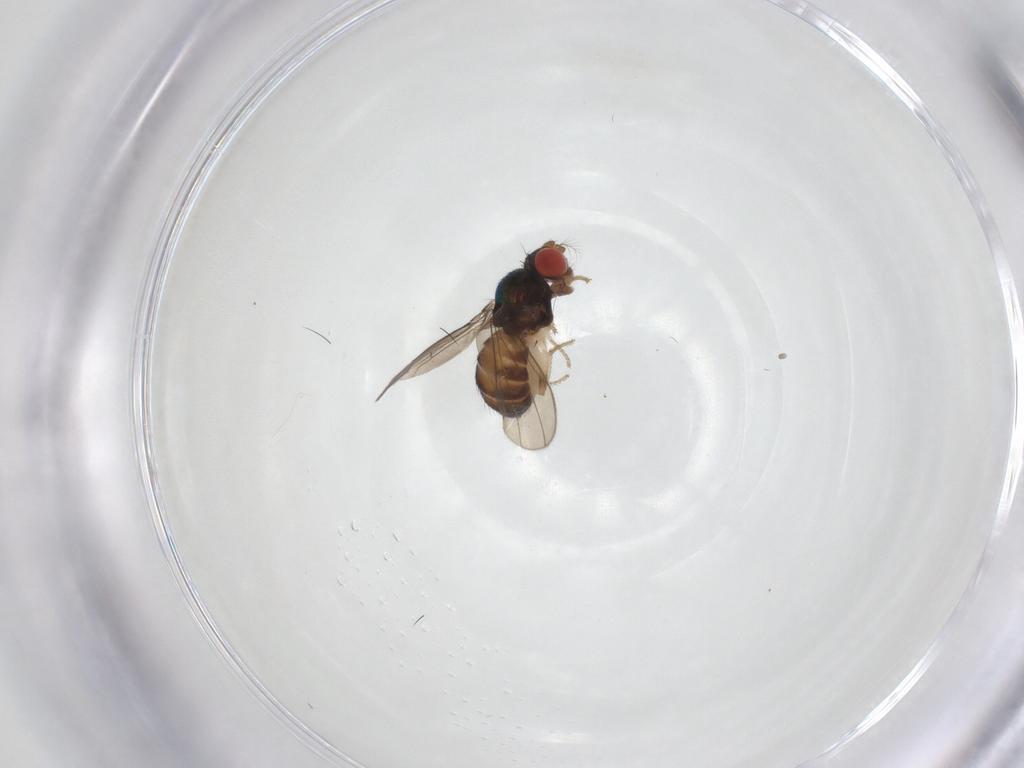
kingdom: Animalia
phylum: Arthropoda
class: Insecta
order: Diptera
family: Drosophilidae
